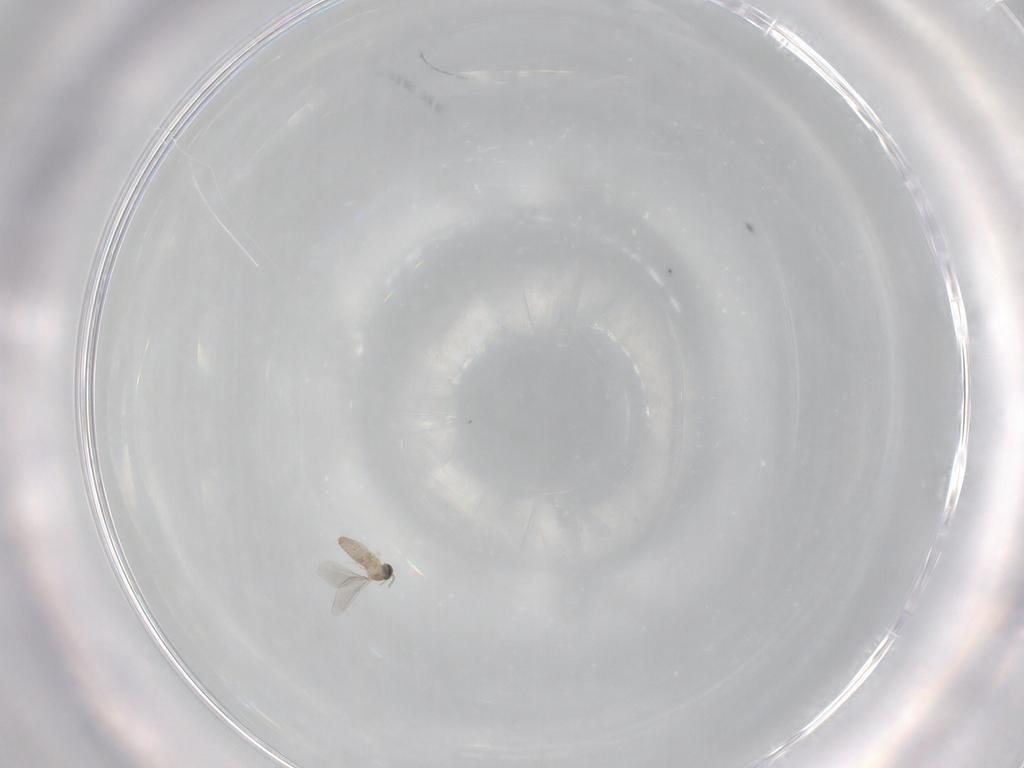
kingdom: Animalia
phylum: Arthropoda
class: Insecta
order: Diptera
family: Cecidomyiidae
